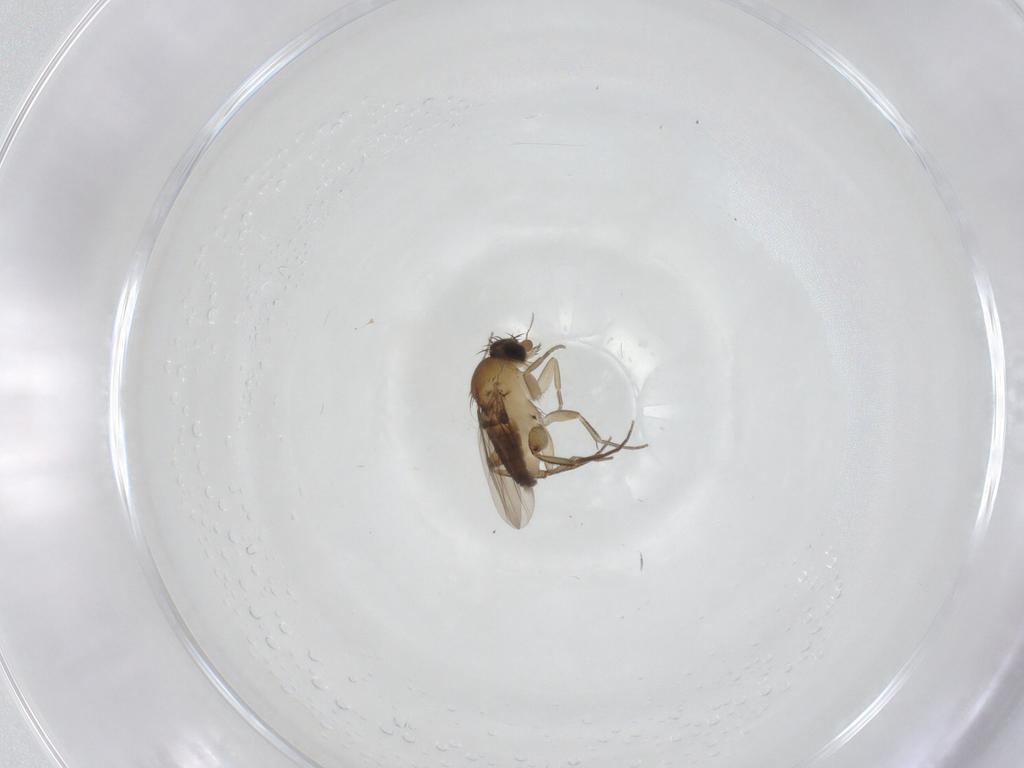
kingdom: Animalia
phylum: Arthropoda
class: Insecta
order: Diptera
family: Phoridae
